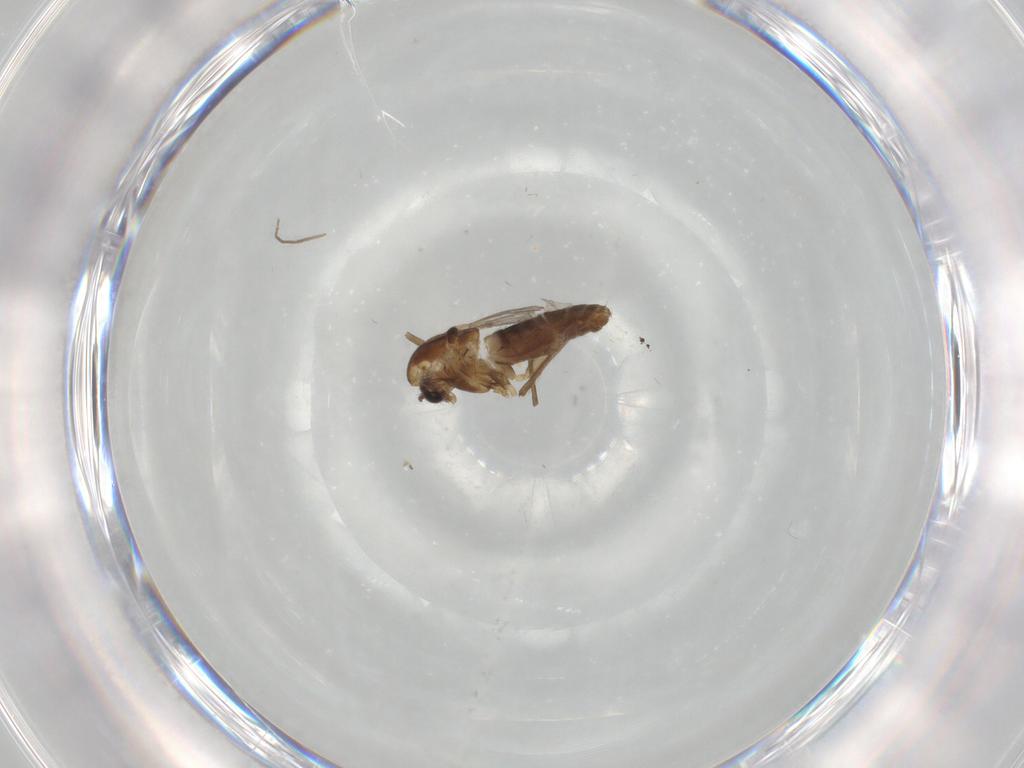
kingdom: Animalia
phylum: Arthropoda
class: Insecta
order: Diptera
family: Chironomidae
